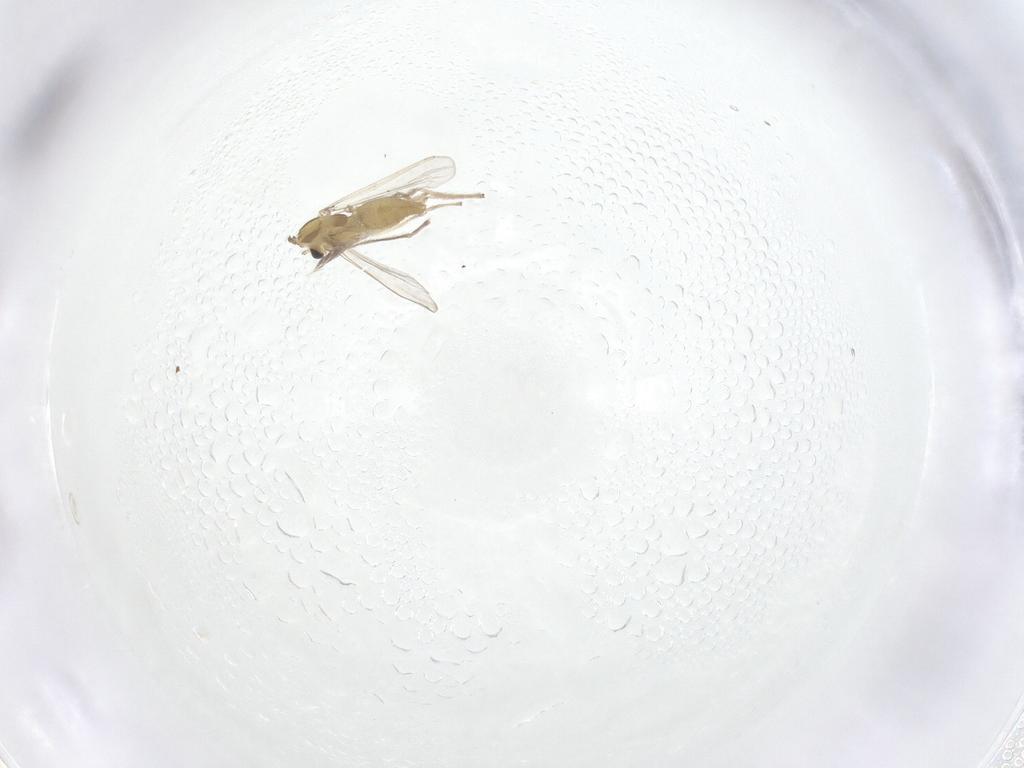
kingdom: Animalia
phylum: Arthropoda
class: Insecta
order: Diptera
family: Chironomidae
